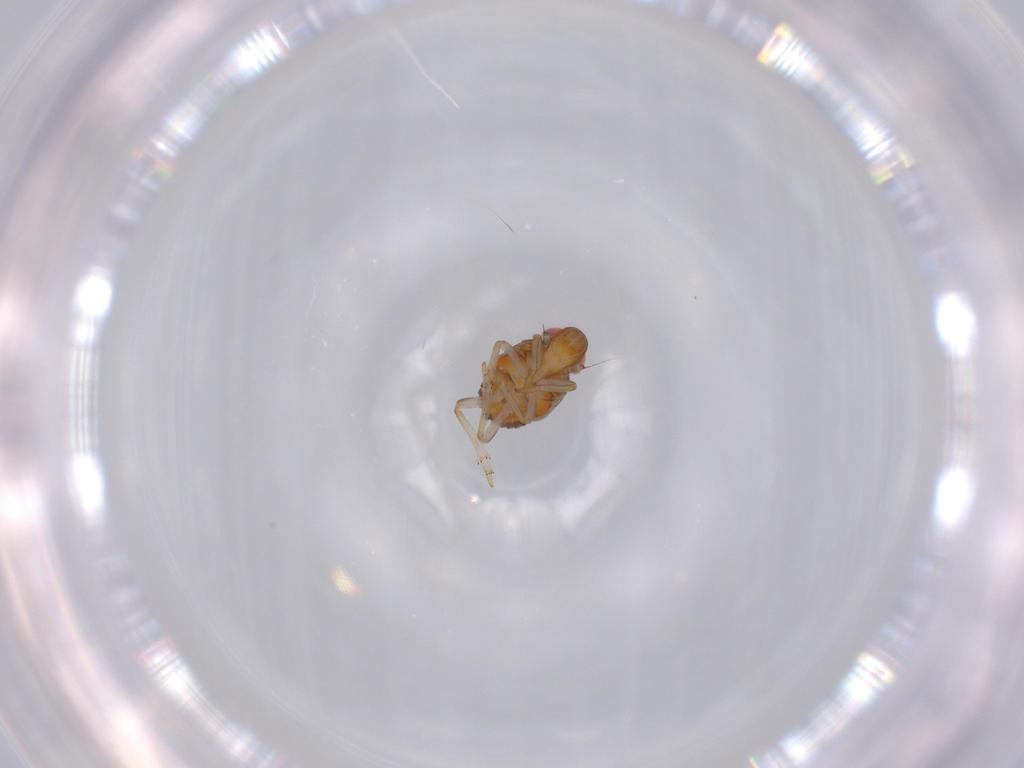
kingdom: Animalia
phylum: Arthropoda
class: Insecta
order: Hemiptera
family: Issidae
